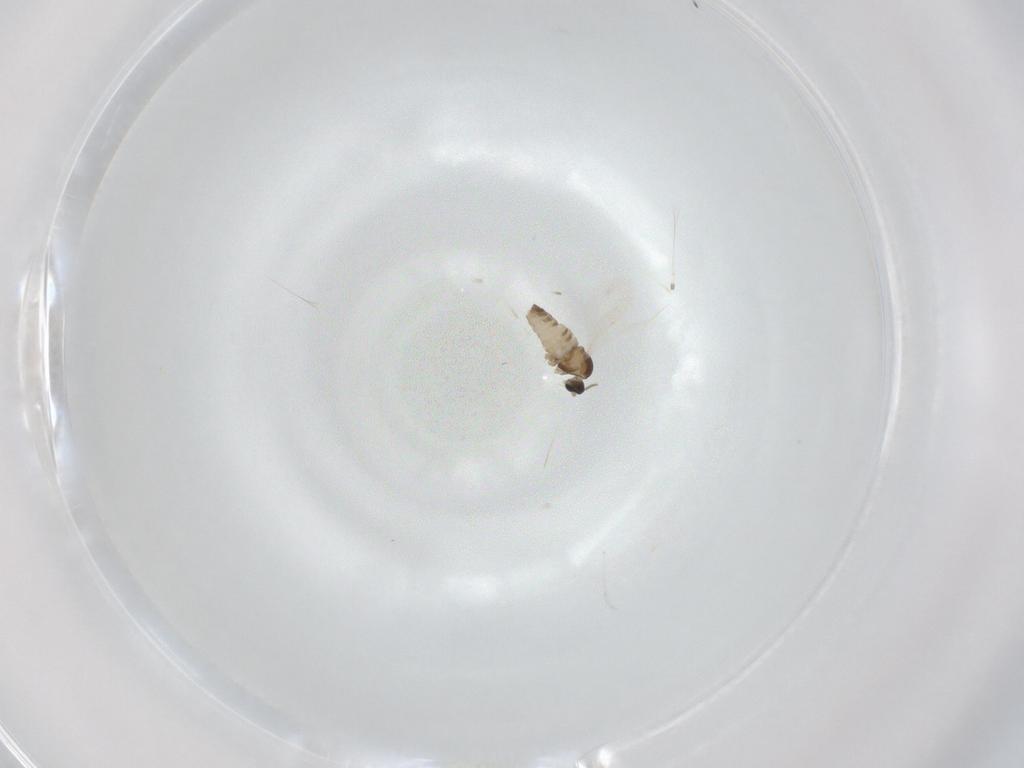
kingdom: Animalia
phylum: Arthropoda
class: Insecta
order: Diptera
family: Cecidomyiidae
